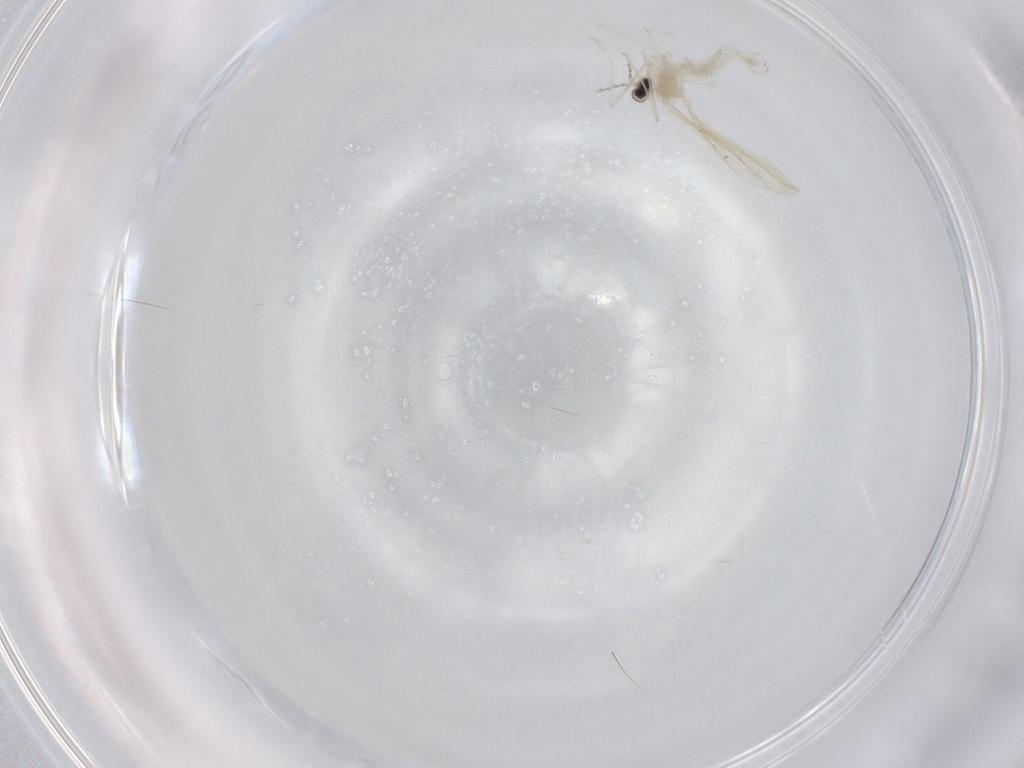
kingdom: Animalia
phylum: Arthropoda
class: Insecta
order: Diptera
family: Cecidomyiidae
